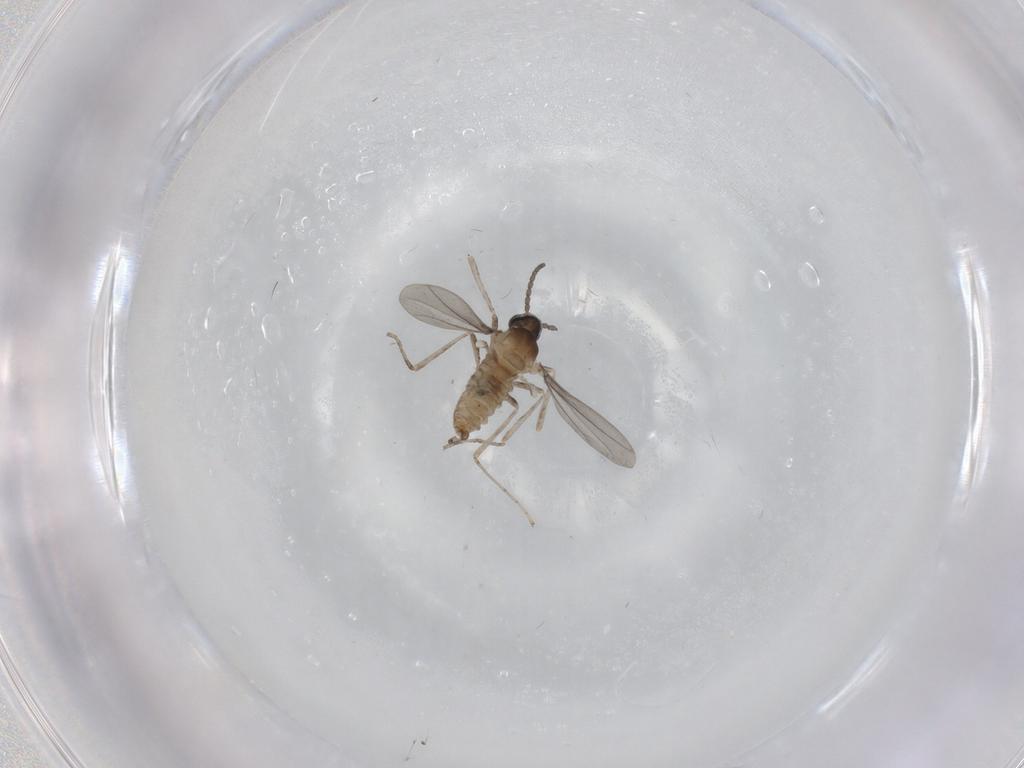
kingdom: Animalia
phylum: Arthropoda
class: Insecta
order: Diptera
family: Cecidomyiidae
